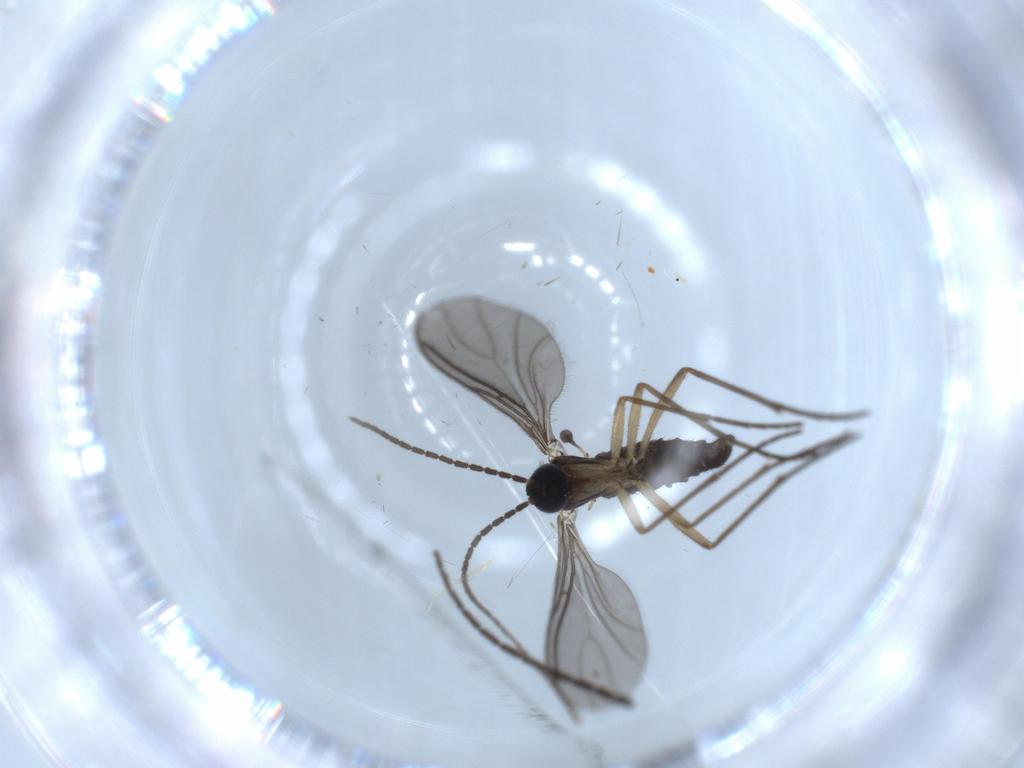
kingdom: Animalia
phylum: Arthropoda
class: Insecta
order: Diptera
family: Sciaridae
